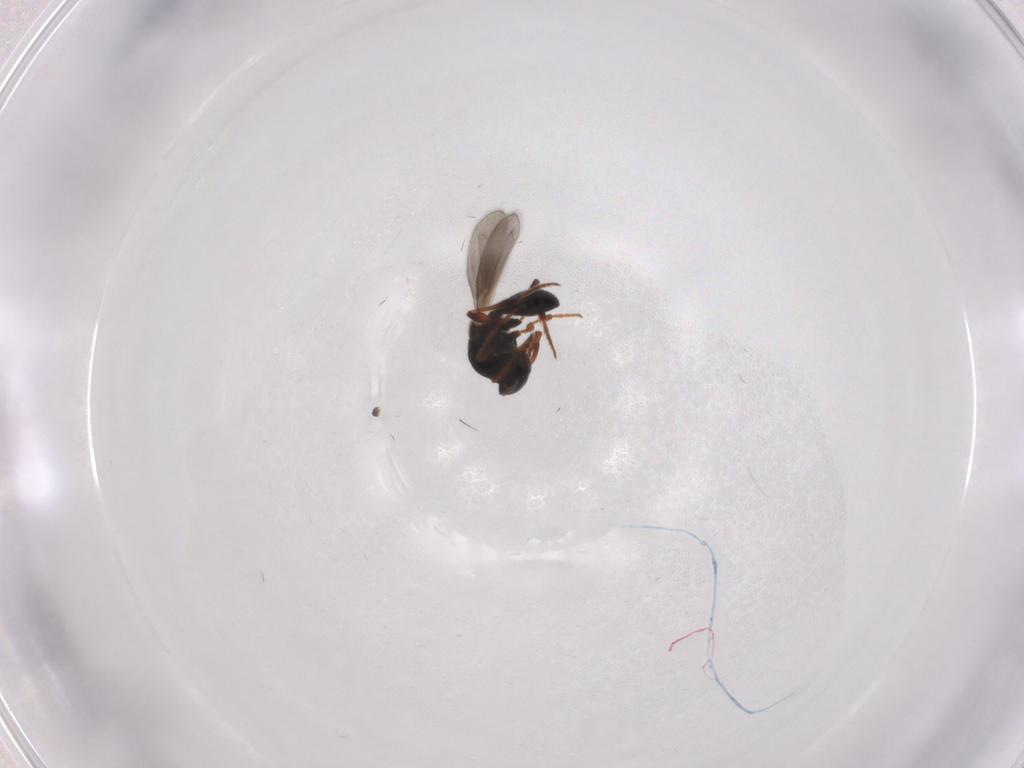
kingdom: Animalia
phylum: Arthropoda
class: Insecta
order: Hymenoptera
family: Platygastridae
